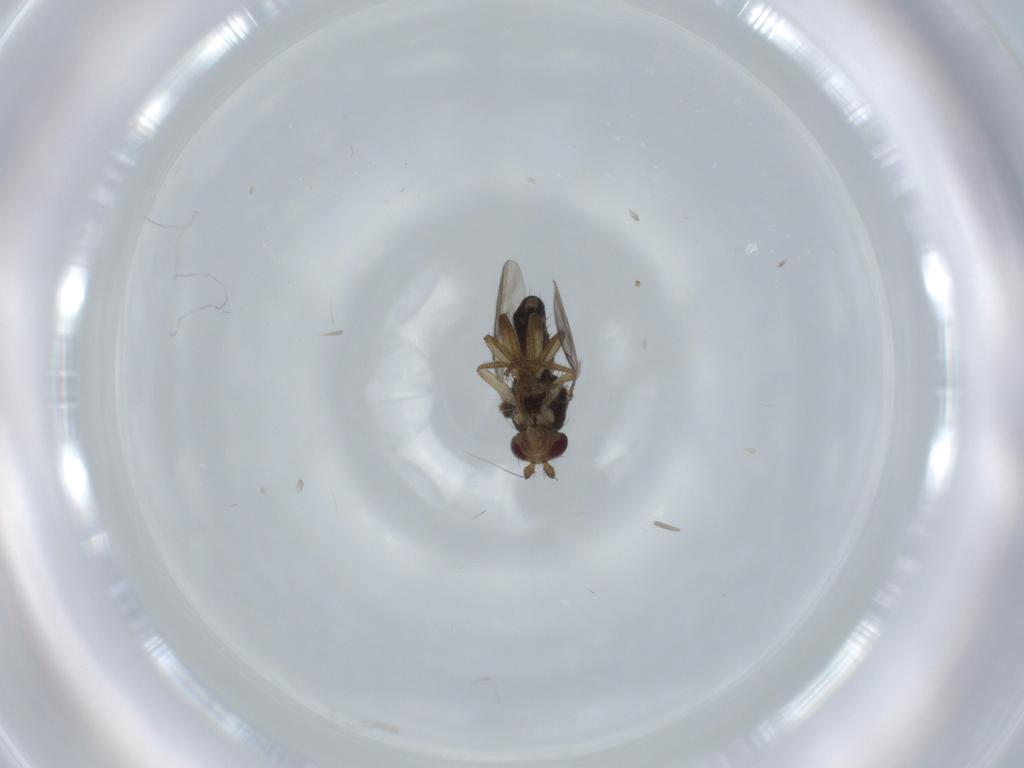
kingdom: Animalia
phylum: Arthropoda
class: Insecta
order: Diptera
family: Sphaeroceridae
